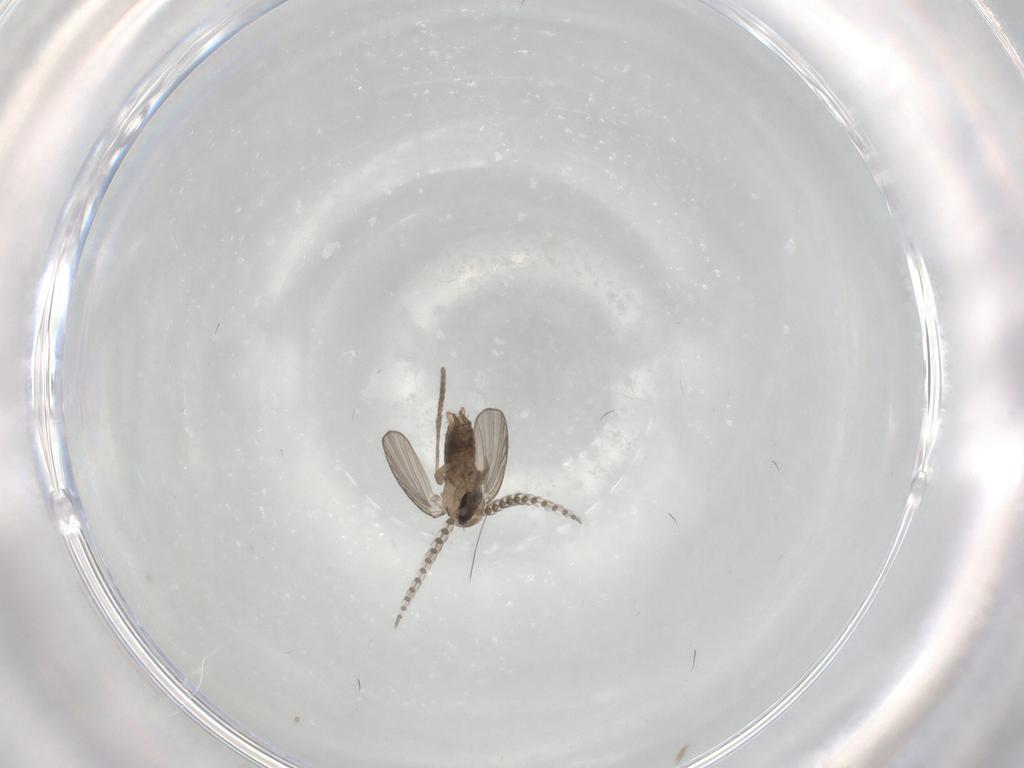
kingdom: Animalia
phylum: Arthropoda
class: Insecta
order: Diptera
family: Psychodidae
